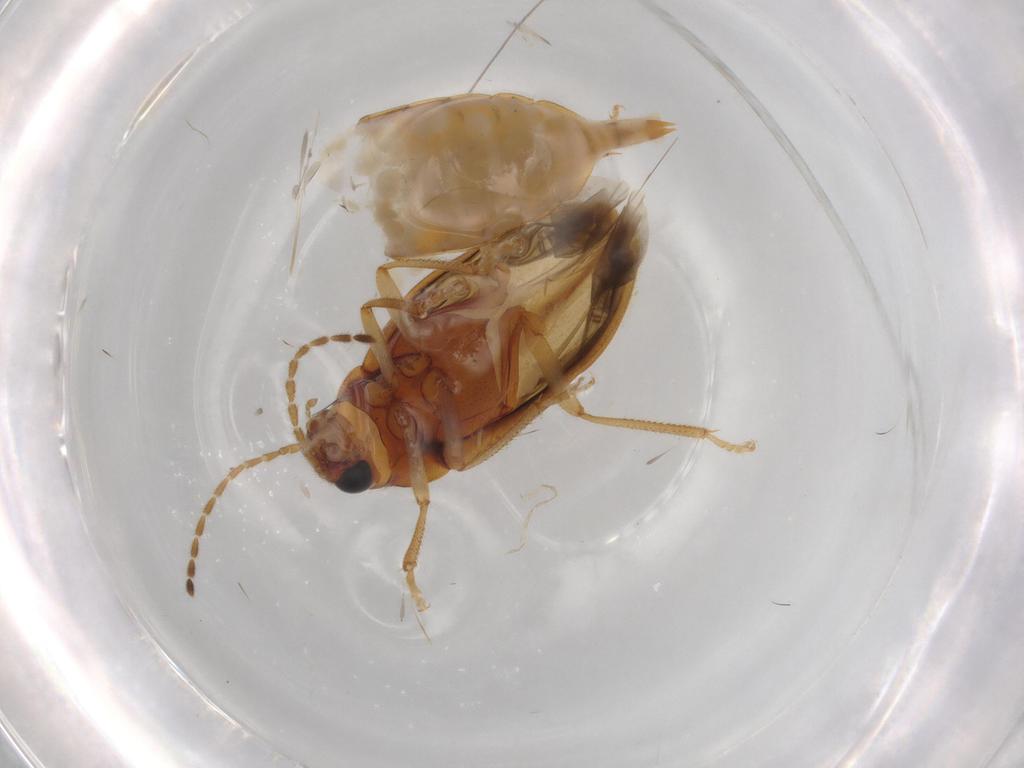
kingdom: Animalia
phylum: Arthropoda
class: Insecta
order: Coleoptera
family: Ptilodactylidae
